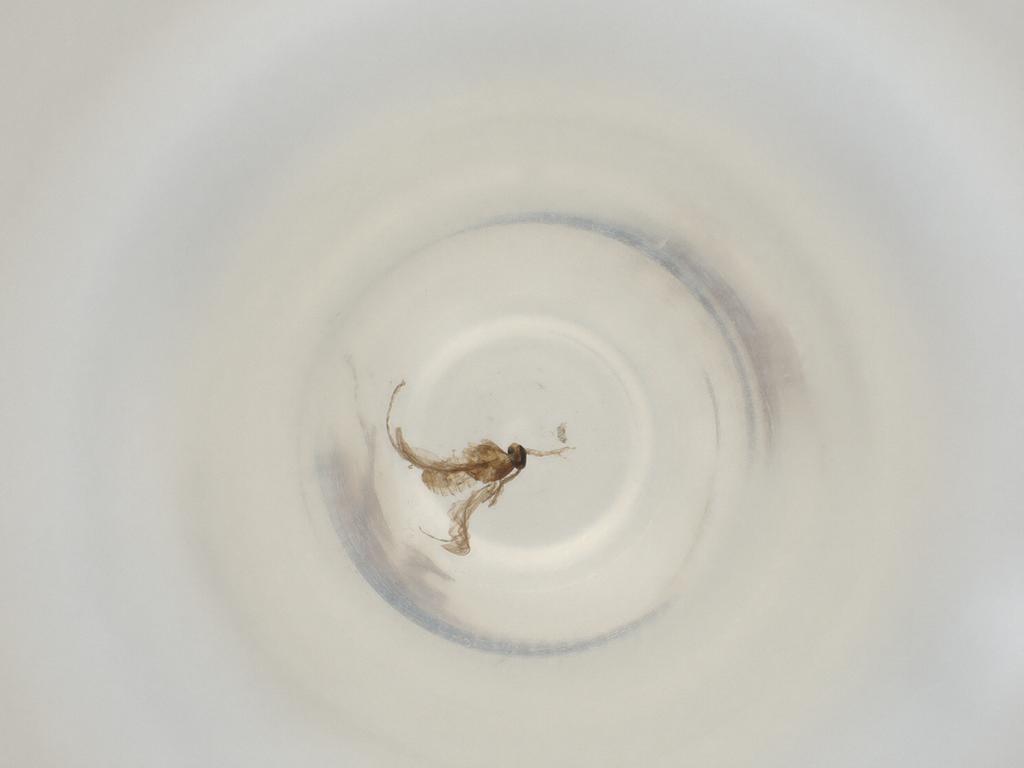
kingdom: Animalia
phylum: Arthropoda
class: Insecta
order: Diptera
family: Cecidomyiidae
